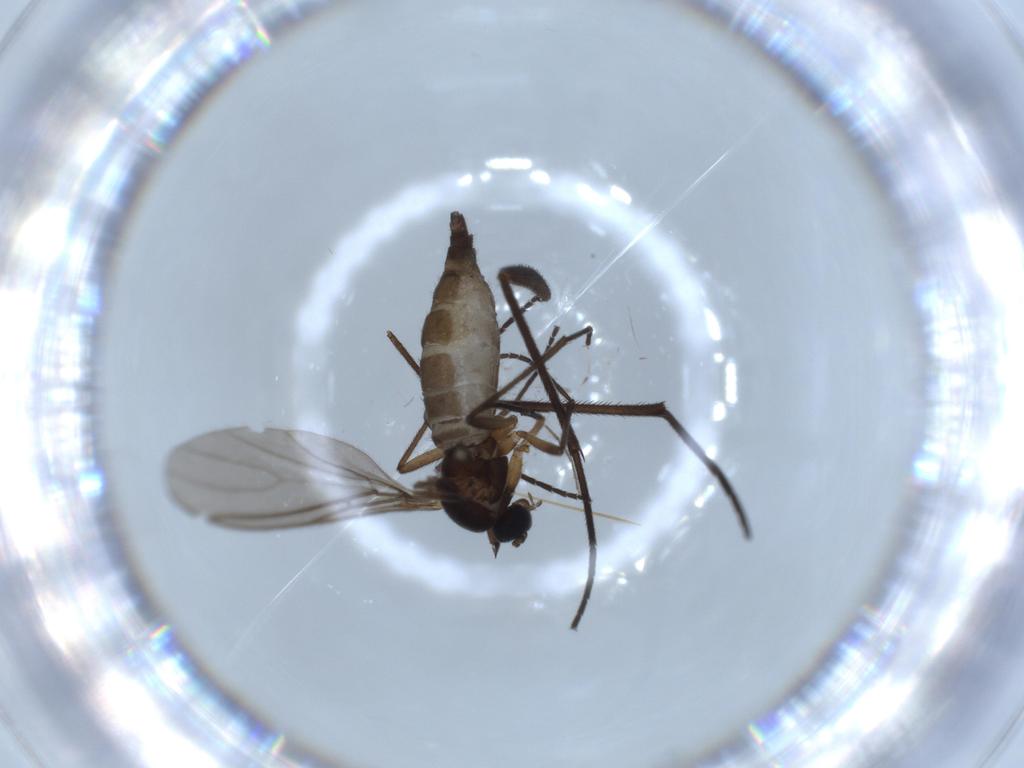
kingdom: Animalia
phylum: Arthropoda
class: Insecta
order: Diptera
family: Sciaridae
